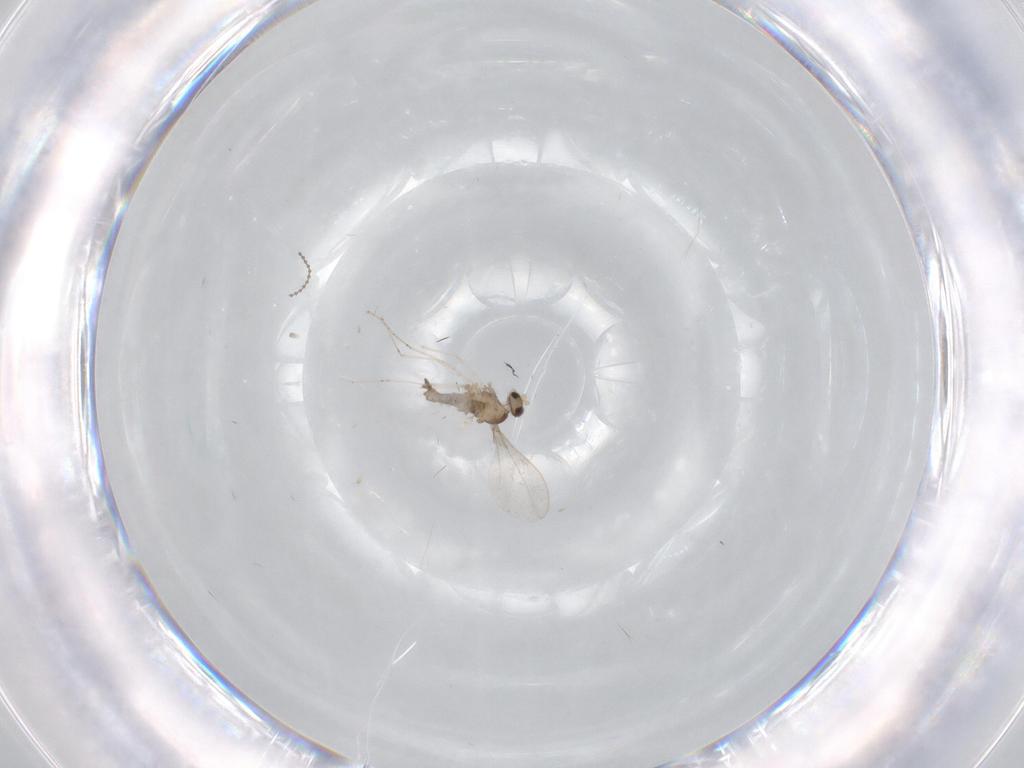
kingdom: Animalia
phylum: Arthropoda
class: Insecta
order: Diptera
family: Cecidomyiidae
